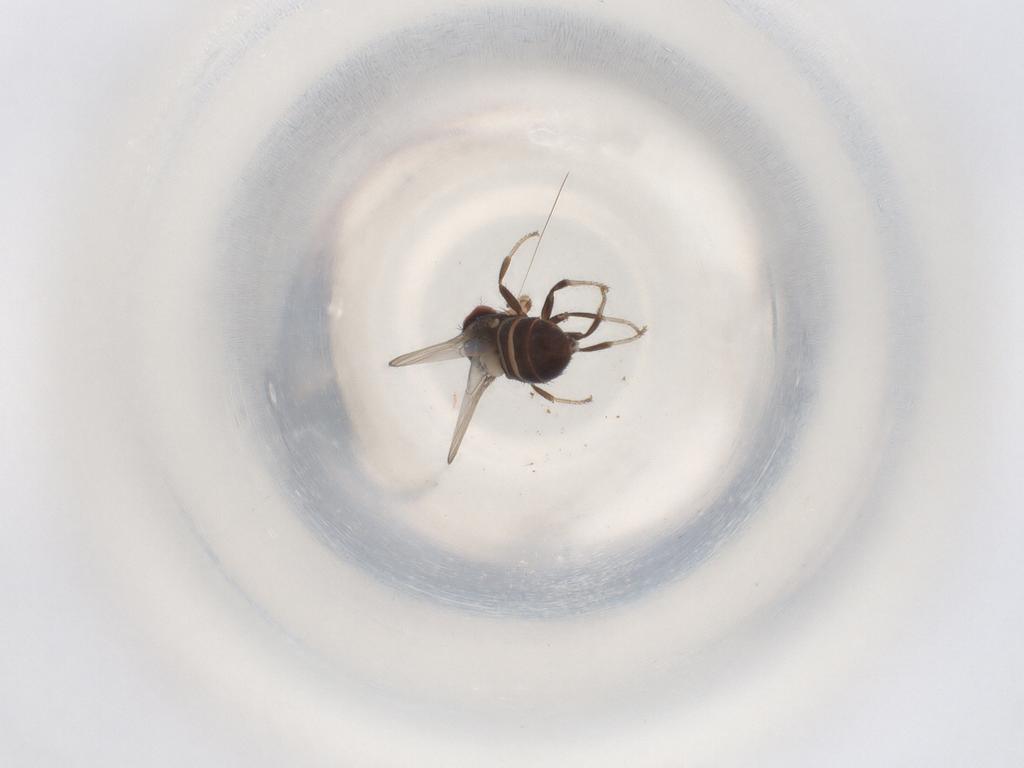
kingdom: Animalia
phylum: Arthropoda
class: Insecta
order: Diptera
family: Drosophilidae
